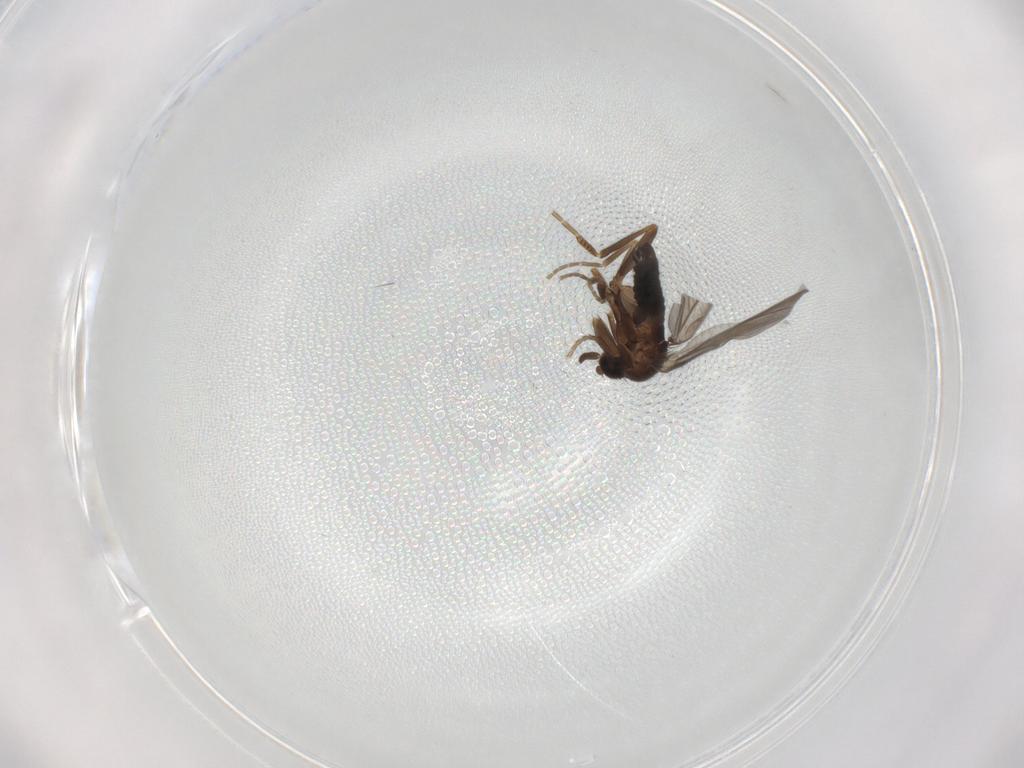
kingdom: Animalia
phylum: Arthropoda
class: Insecta
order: Diptera
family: Phoridae
